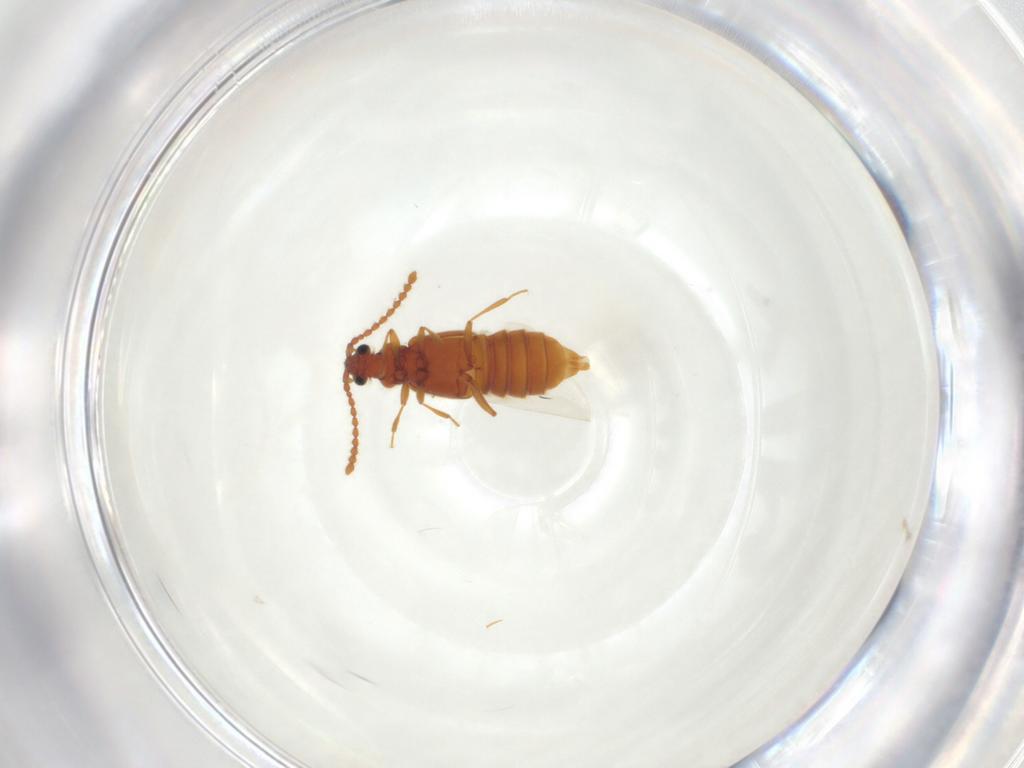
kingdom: Animalia
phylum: Arthropoda
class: Insecta
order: Coleoptera
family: Staphylinidae
